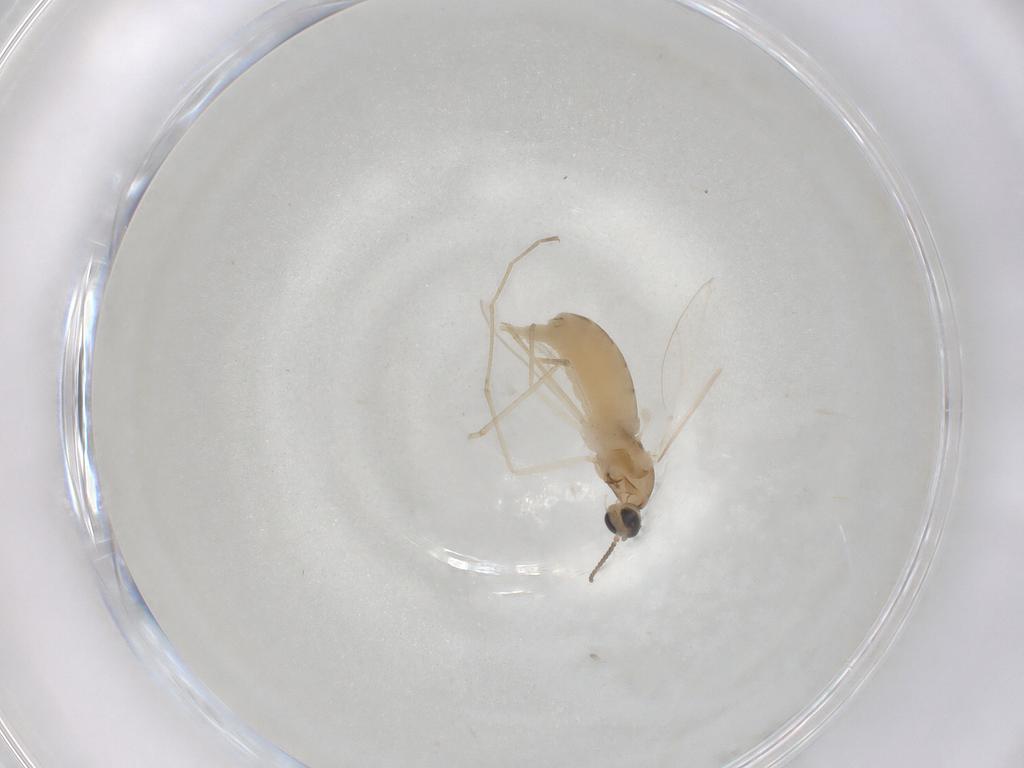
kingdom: Animalia
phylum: Arthropoda
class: Insecta
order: Diptera
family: Cecidomyiidae
